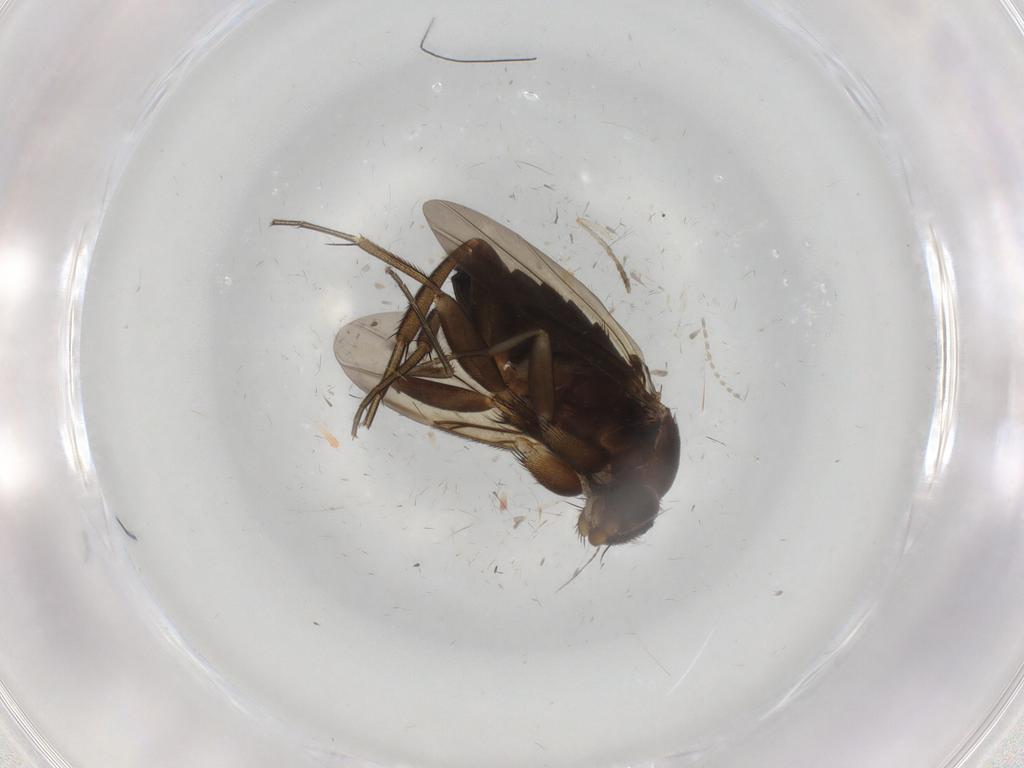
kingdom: Animalia
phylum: Arthropoda
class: Insecta
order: Diptera
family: Phoridae
